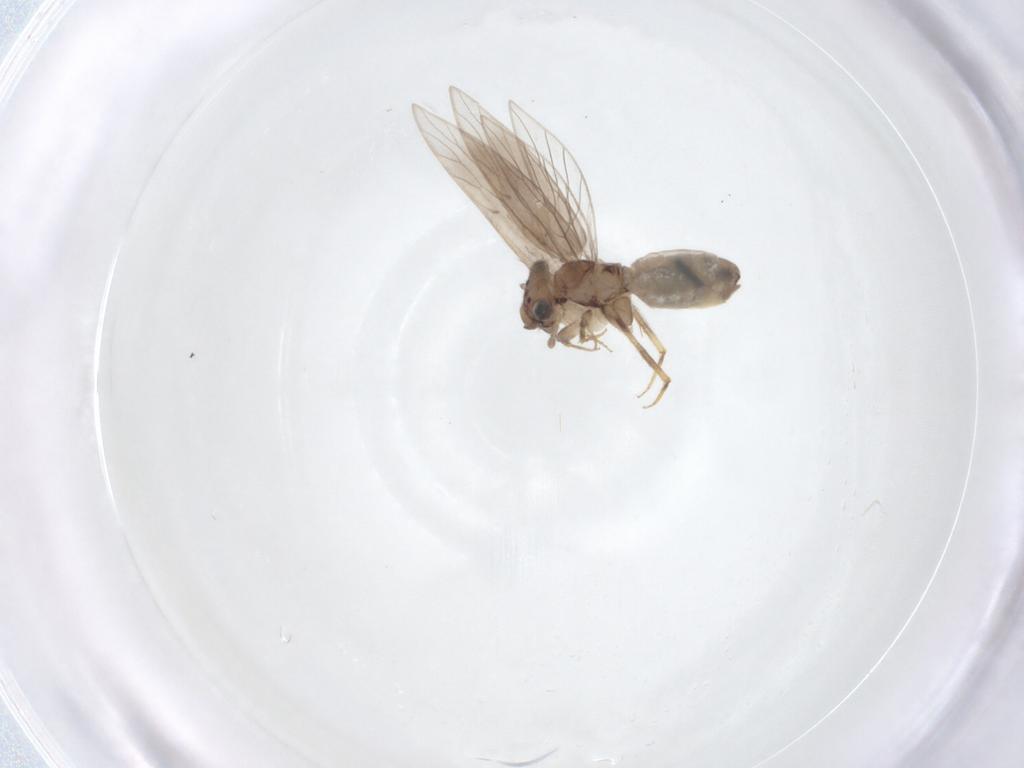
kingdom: Animalia
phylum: Arthropoda
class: Insecta
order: Psocodea
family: Lepidopsocidae
